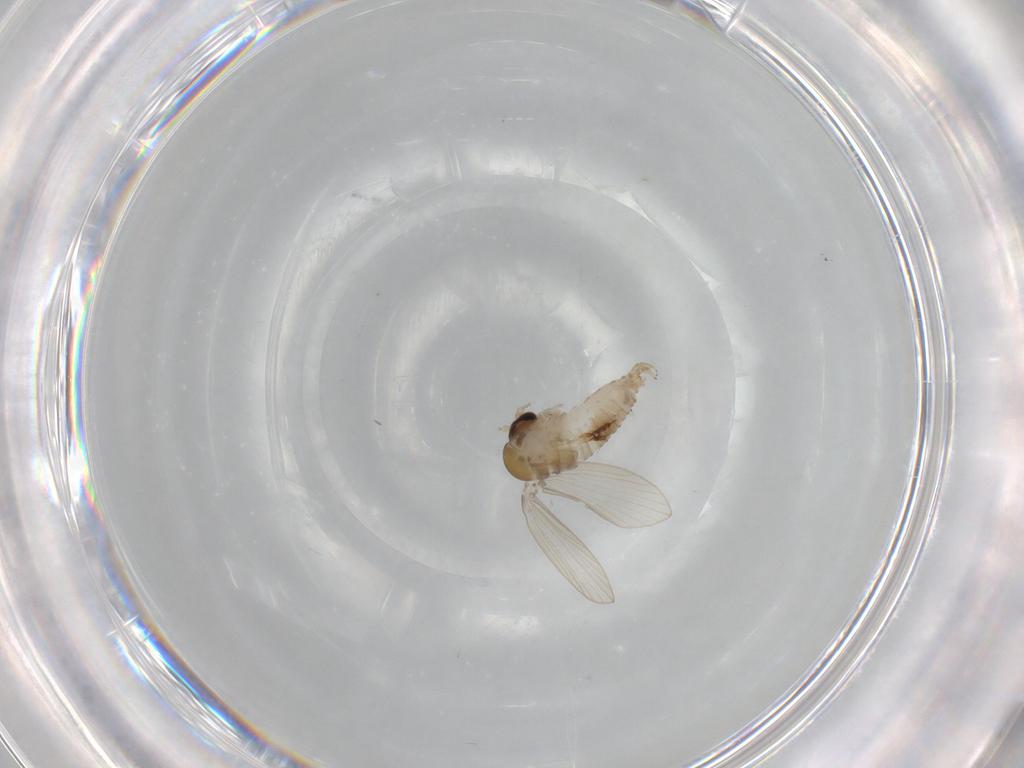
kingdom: Animalia
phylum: Arthropoda
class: Insecta
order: Diptera
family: Psychodidae
